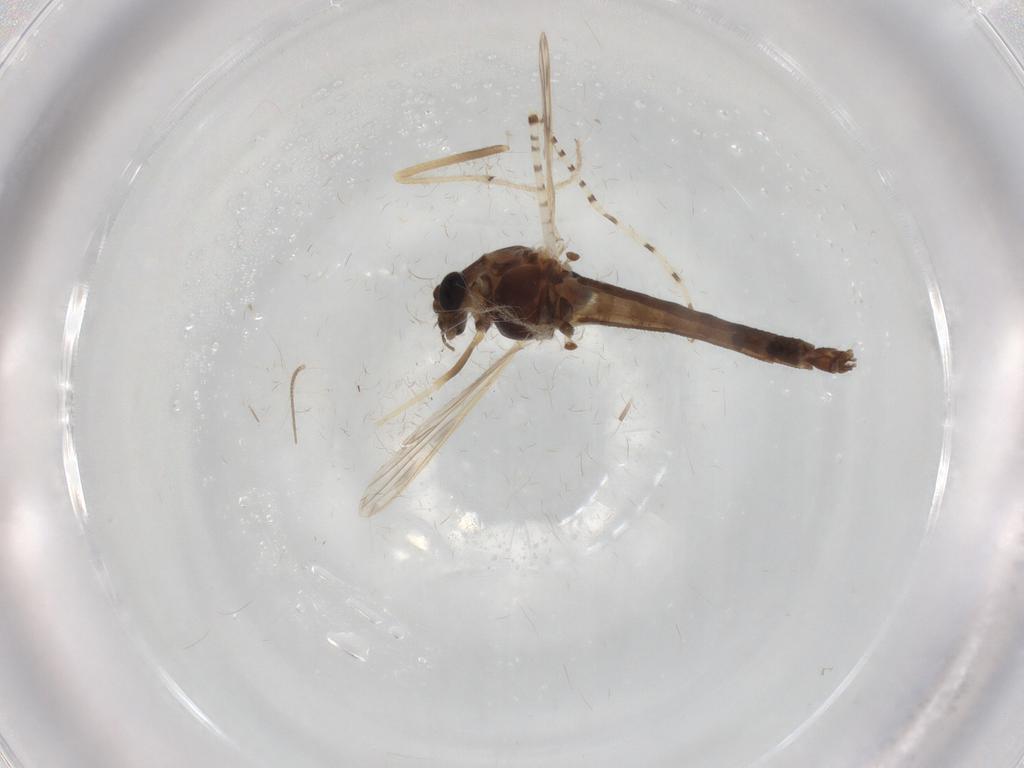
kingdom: Animalia
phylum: Arthropoda
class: Insecta
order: Diptera
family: Chironomidae
